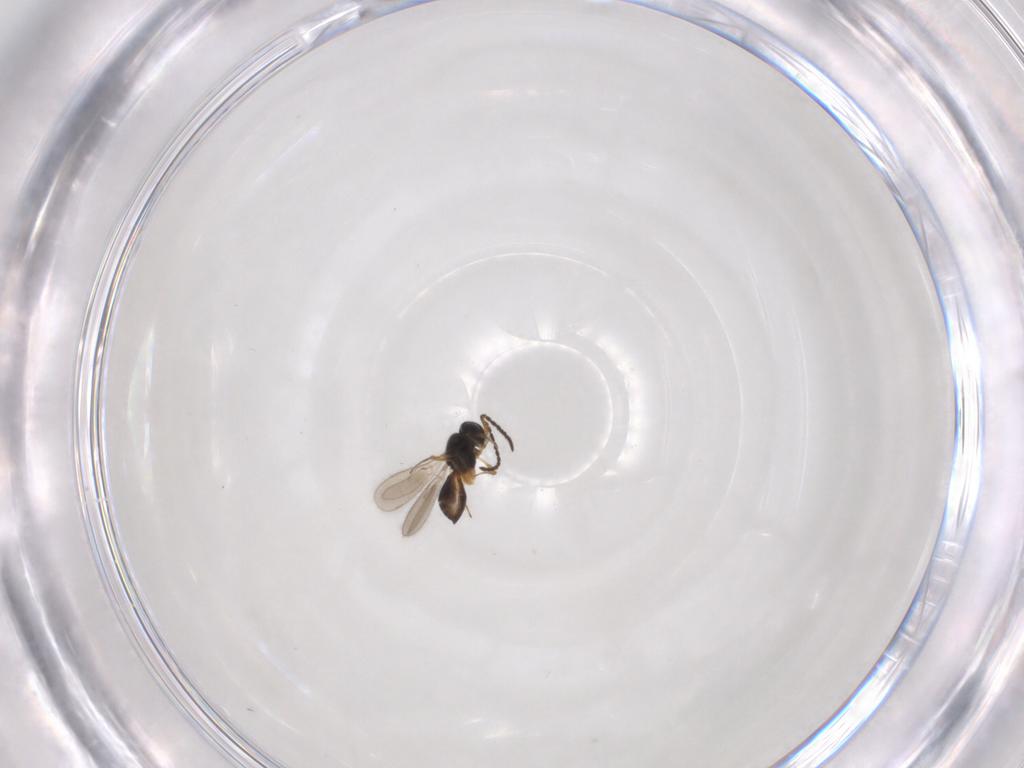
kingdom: Animalia
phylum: Arthropoda
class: Insecta
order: Hymenoptera
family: Scelionidae
